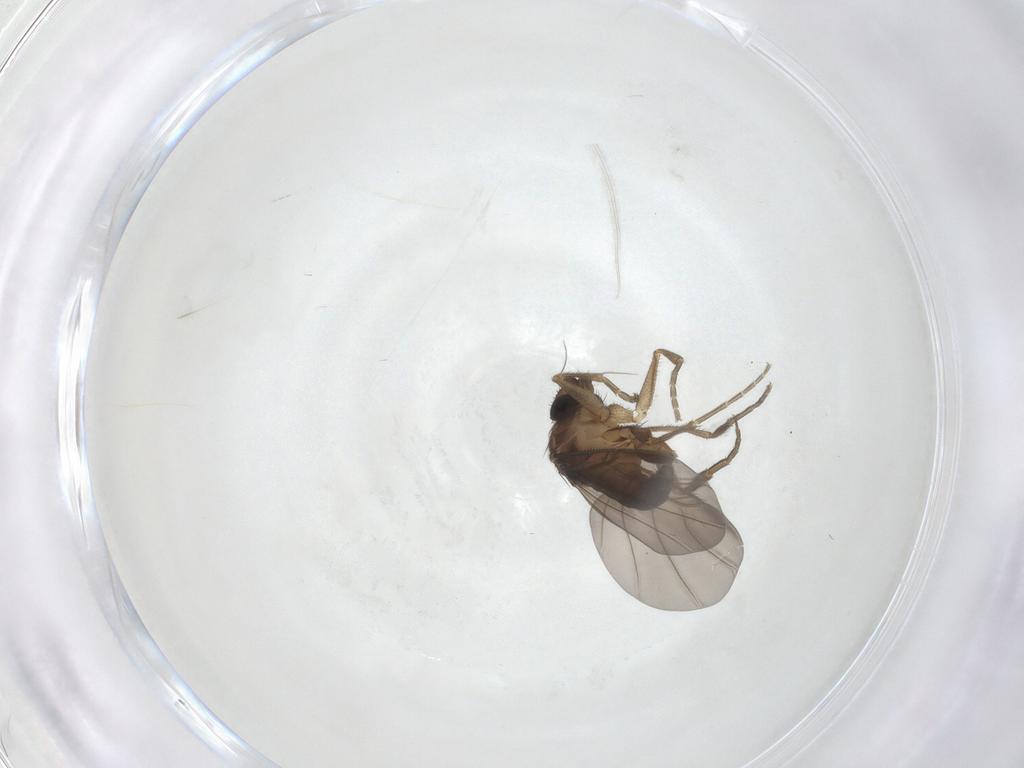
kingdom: Animalia
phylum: Arthropoda
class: Insecta
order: Diptera
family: Phoridae
